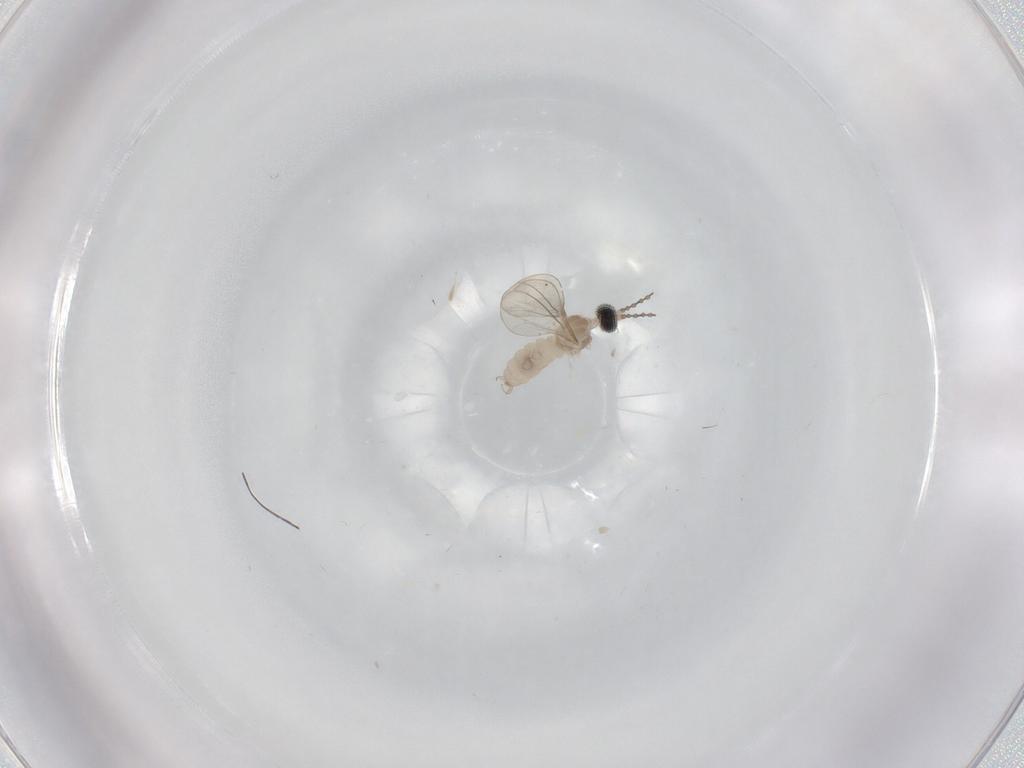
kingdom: Animalia
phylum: Arthropoda
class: Insecta
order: Diptera
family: Cecidomyiidae
